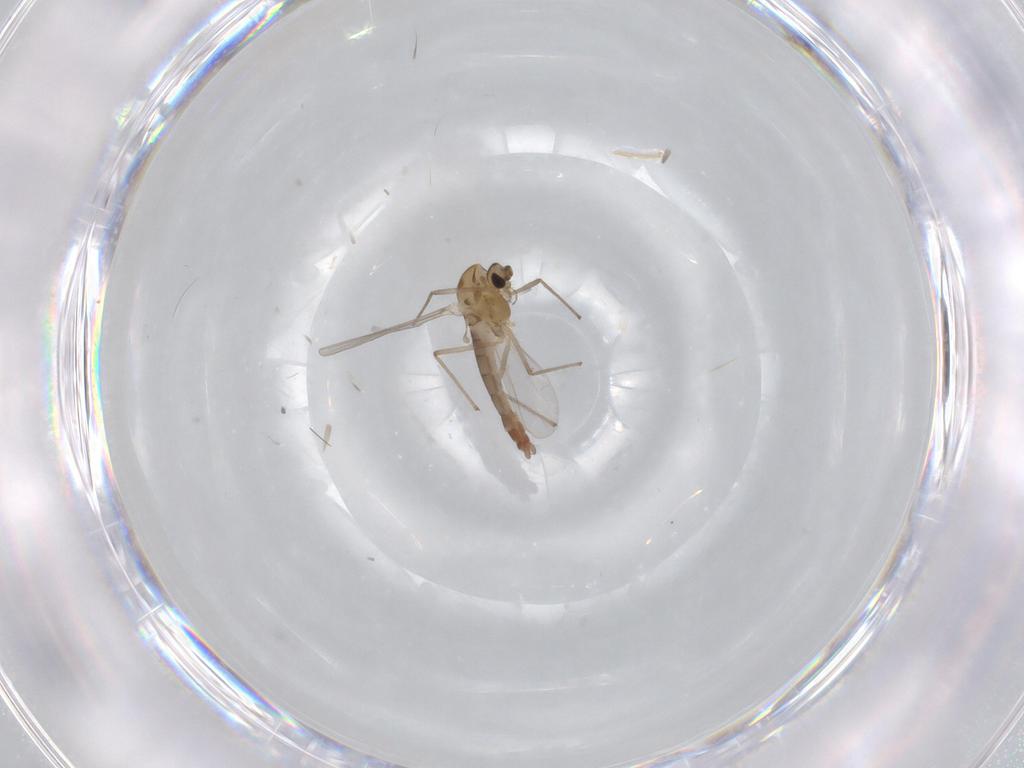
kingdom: Animalia
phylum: Arthropoda
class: Insecta
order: Diptera
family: Chironomidae
